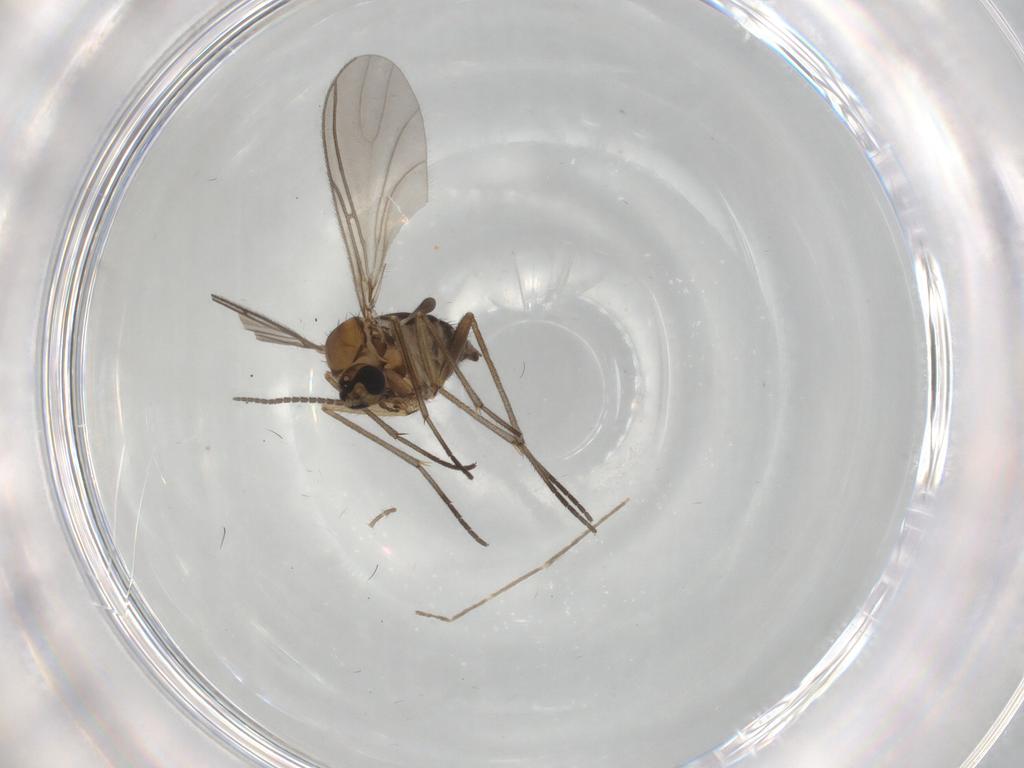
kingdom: Animalia
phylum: Arthropoda
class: Insecta
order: Diptera
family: Sciaridae
